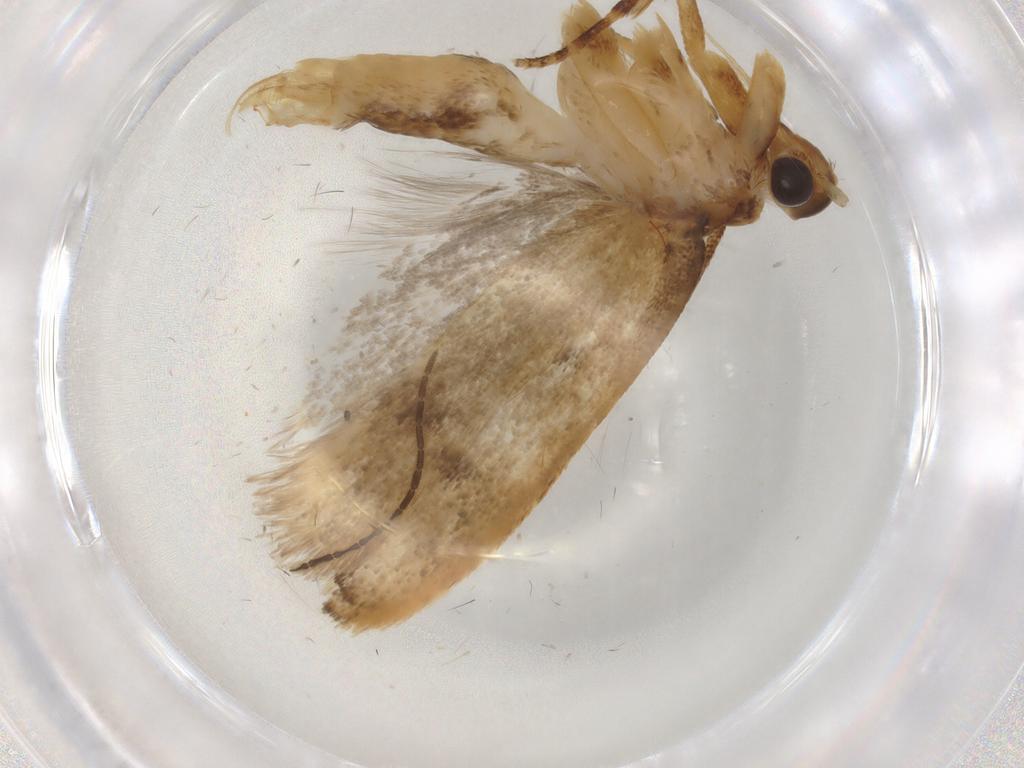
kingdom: Animalia
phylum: Arthropoda
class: Insecta
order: Lepidoptera
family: Lecithoceridae
